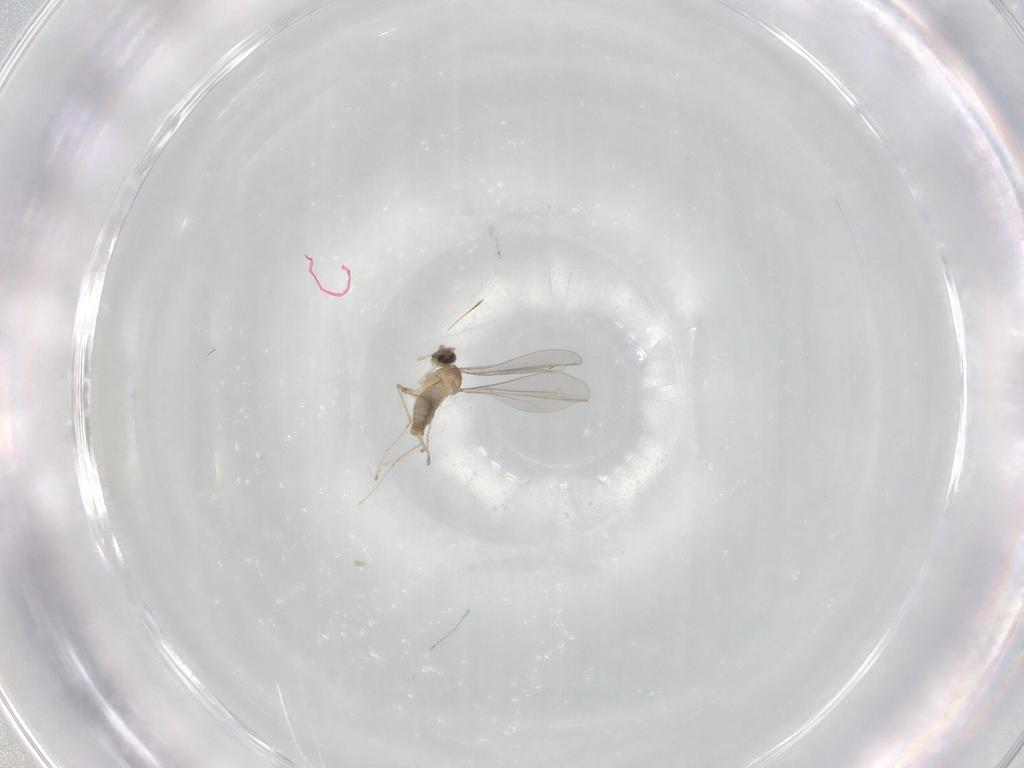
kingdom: Animalia
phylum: Arthropoda
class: Insecta
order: Diptera
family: Cecidomyiidae
